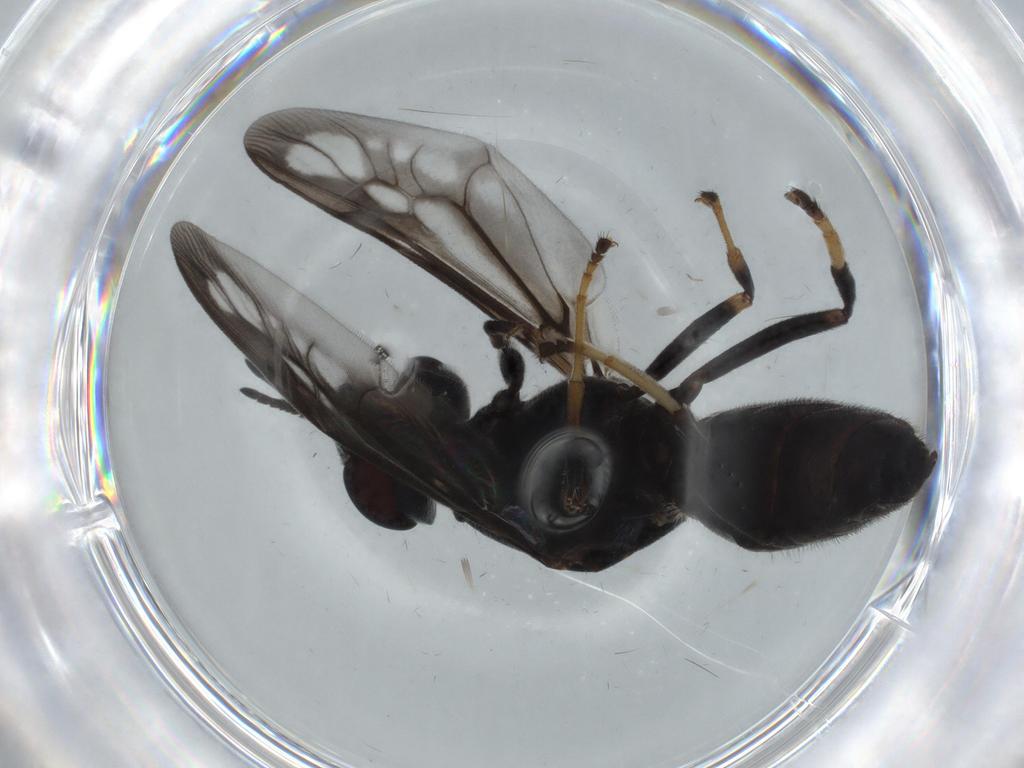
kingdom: Animalia
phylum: Arthropoda
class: Insecta
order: Diptera
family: Stratiomyidae
